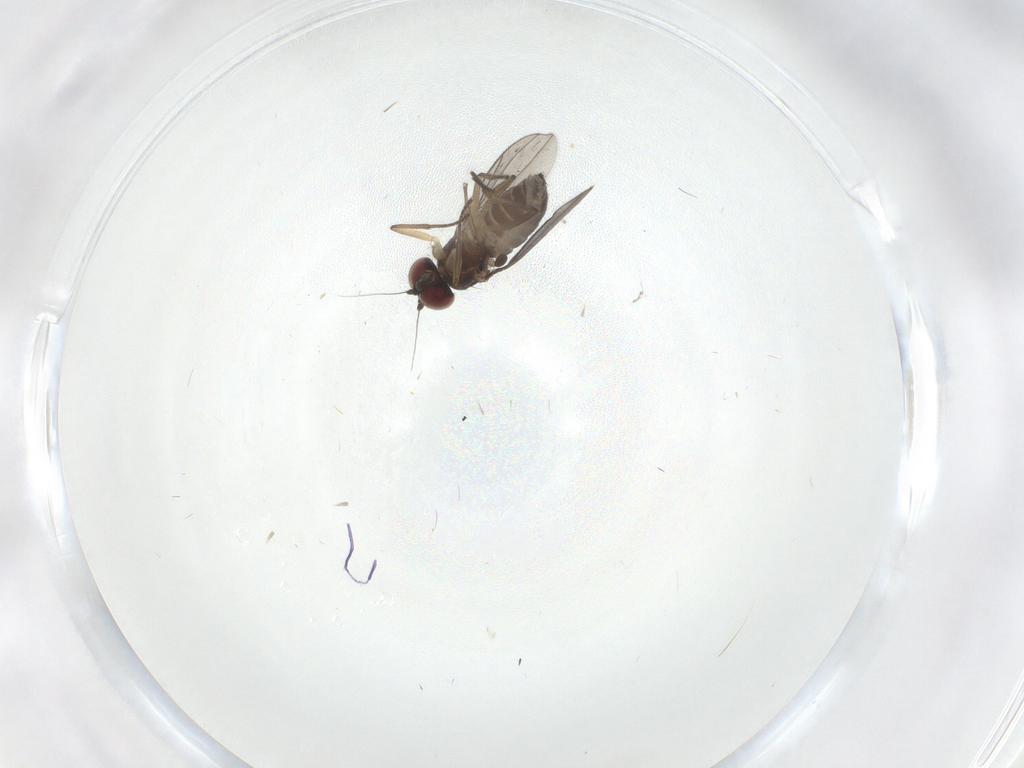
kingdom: Animalia
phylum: Arthropoda
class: Insecta
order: Diptera
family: Dolichopodidae
